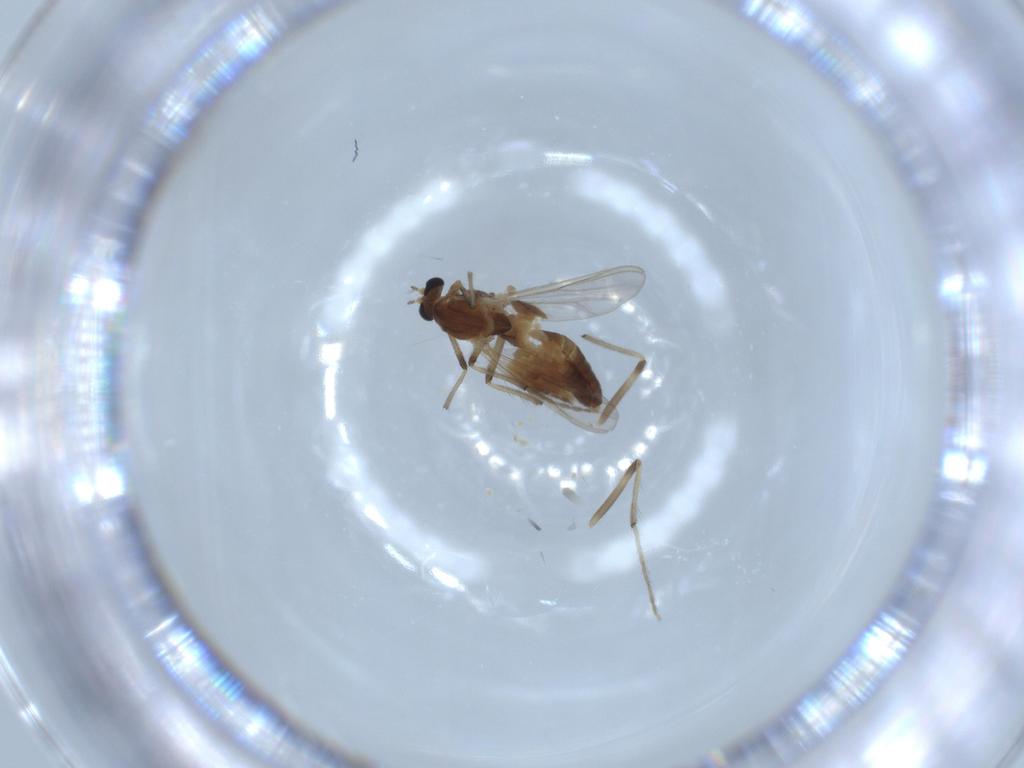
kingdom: Animalia
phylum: Arthropoda
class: Insecta
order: Diptera
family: Chironomidae
